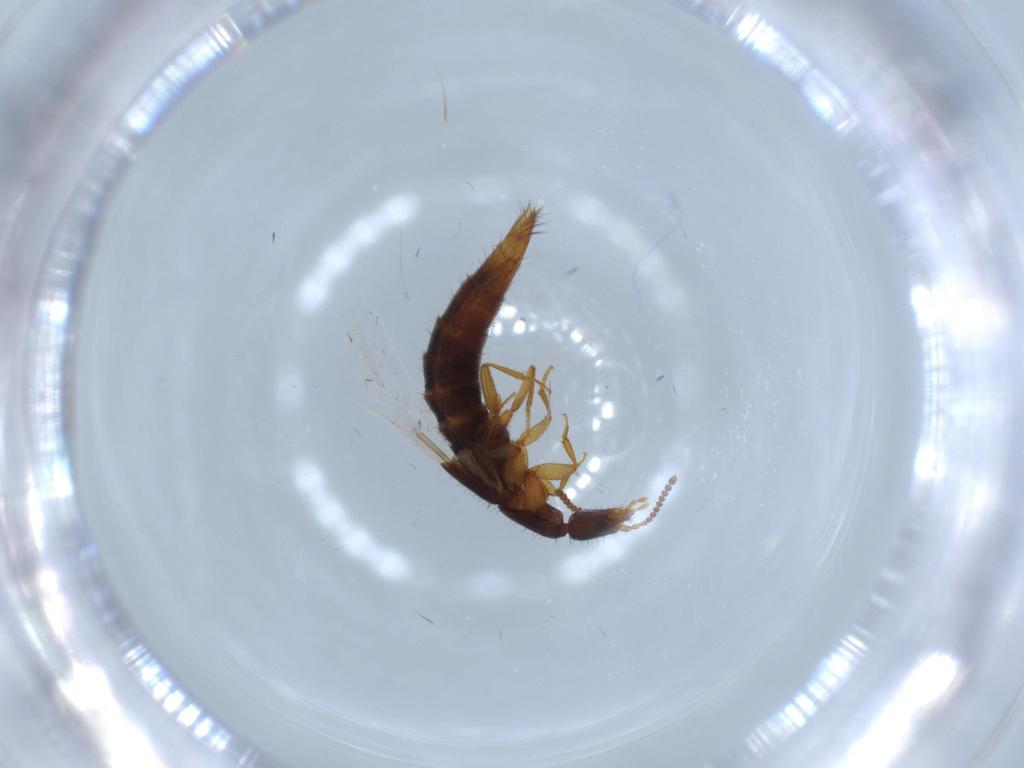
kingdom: Animalia
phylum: Arthropoda
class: Insecta
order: Coleoptera
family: Staphylinidae
